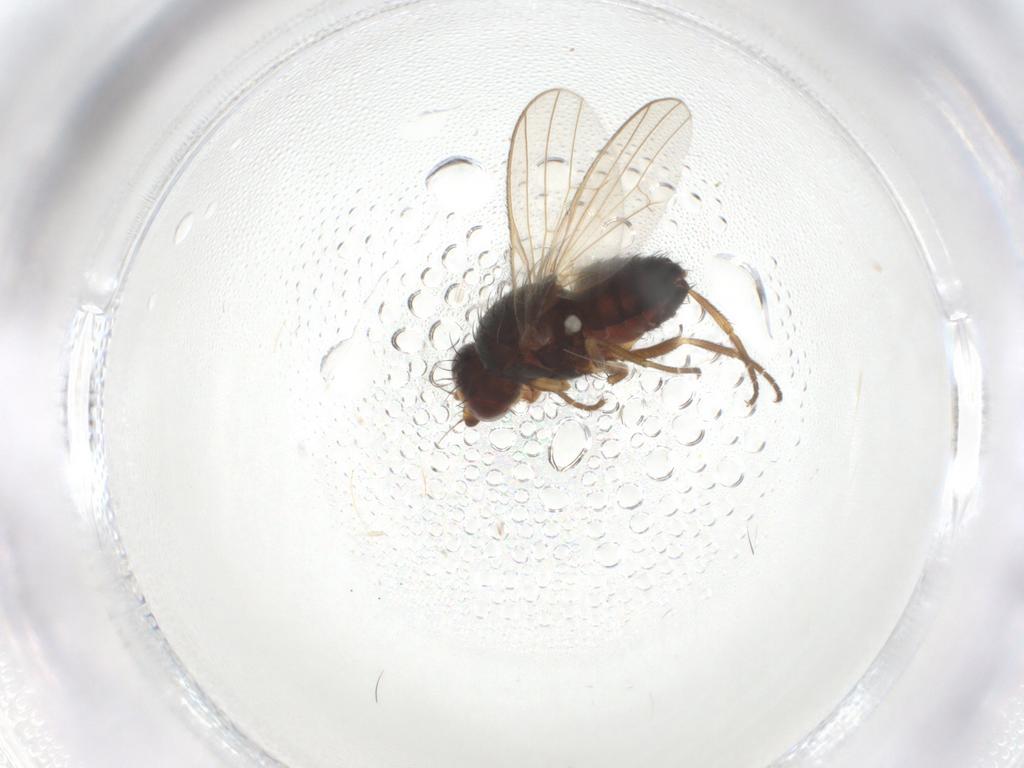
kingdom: Animalia
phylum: Arthropoda
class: Insecta
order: Diptera
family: Heleomyzidae
